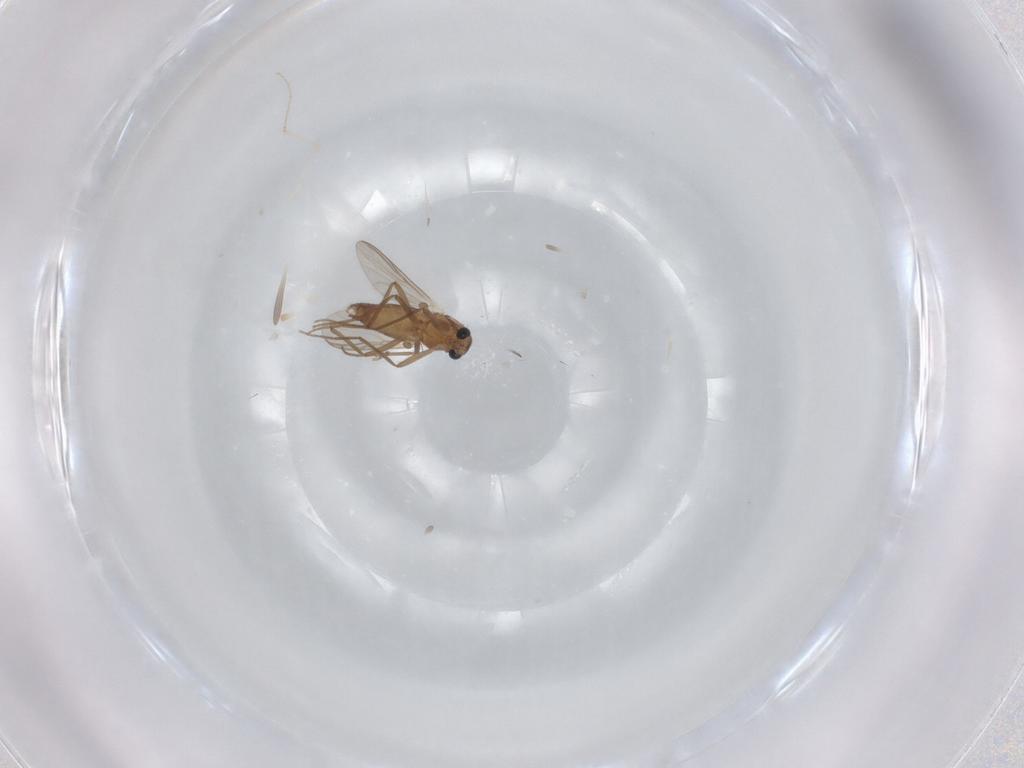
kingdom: Animalia
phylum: Arthropoda
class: Insecta
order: Diptera
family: Chironomidae
